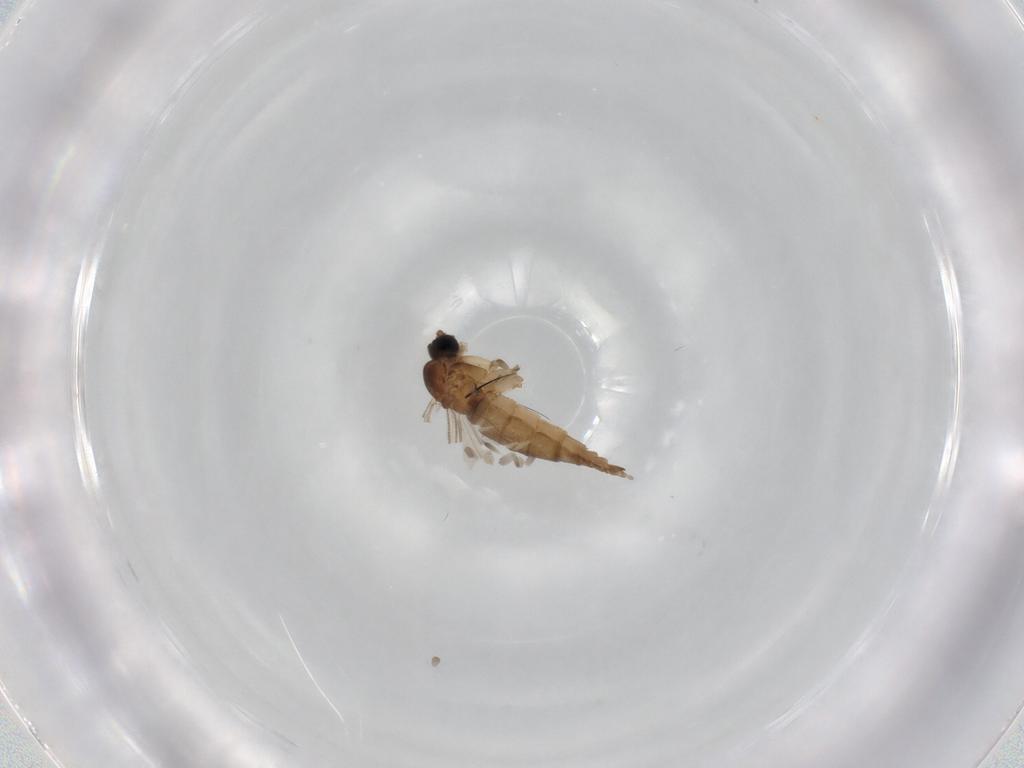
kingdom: Animalia
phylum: Arthropoda
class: Insecta
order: Diptera
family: Sciaridae
